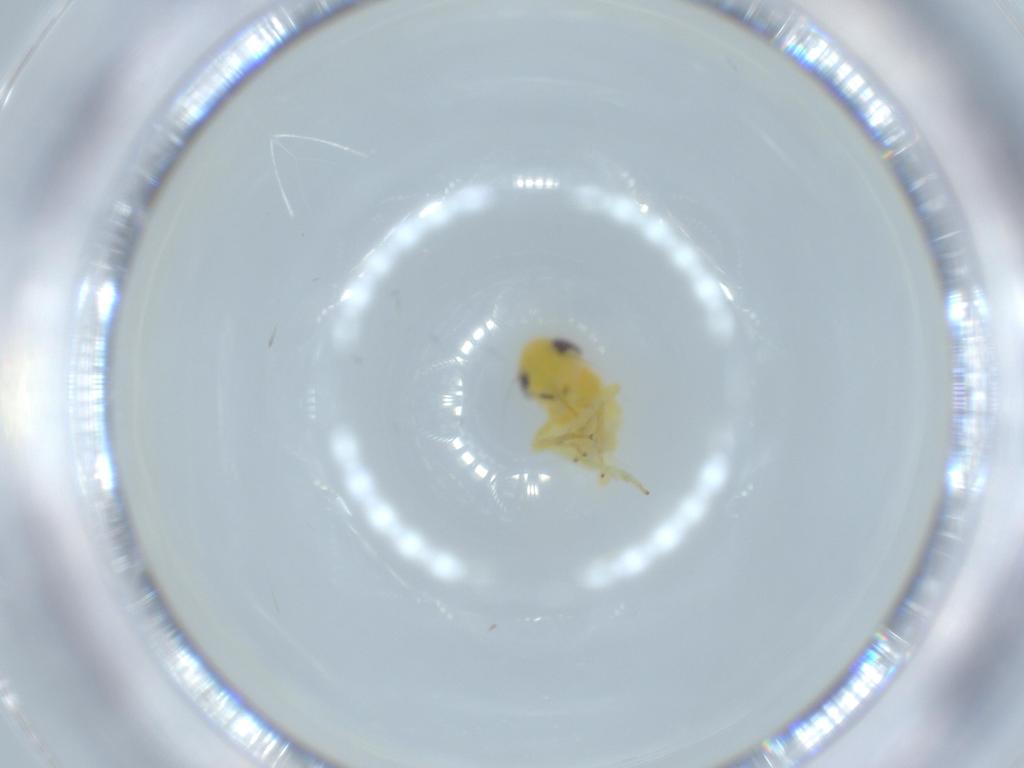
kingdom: Animalia
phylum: Arthropoda
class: Insecta
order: Hemiptera
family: Cicadellidae
